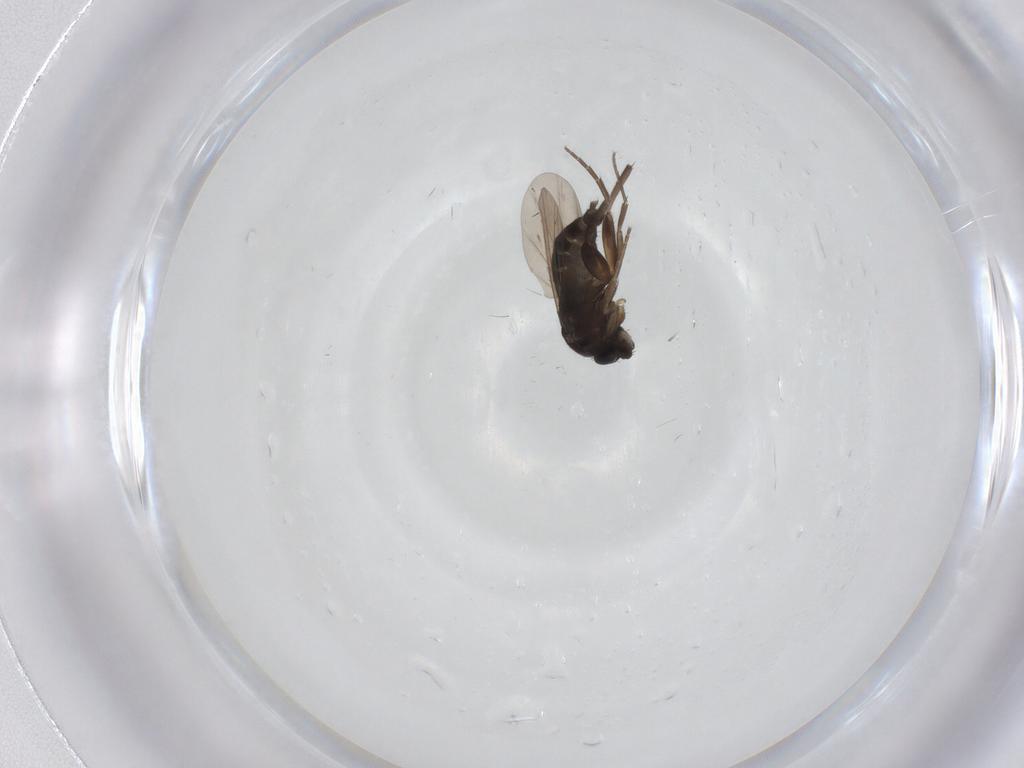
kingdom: Animalia
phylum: Arthropoda
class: Insecta
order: Diptera
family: Phoridae
